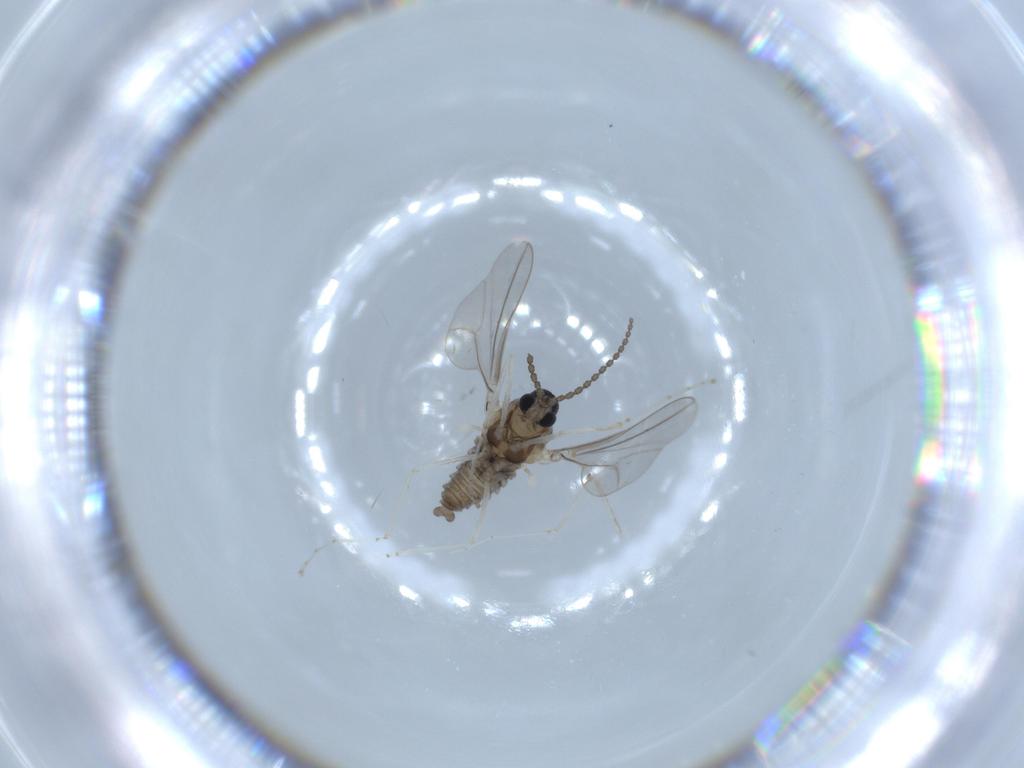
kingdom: Animalia
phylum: Arthropoda
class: Insecta
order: Diptera
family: Cecidomyiidae
